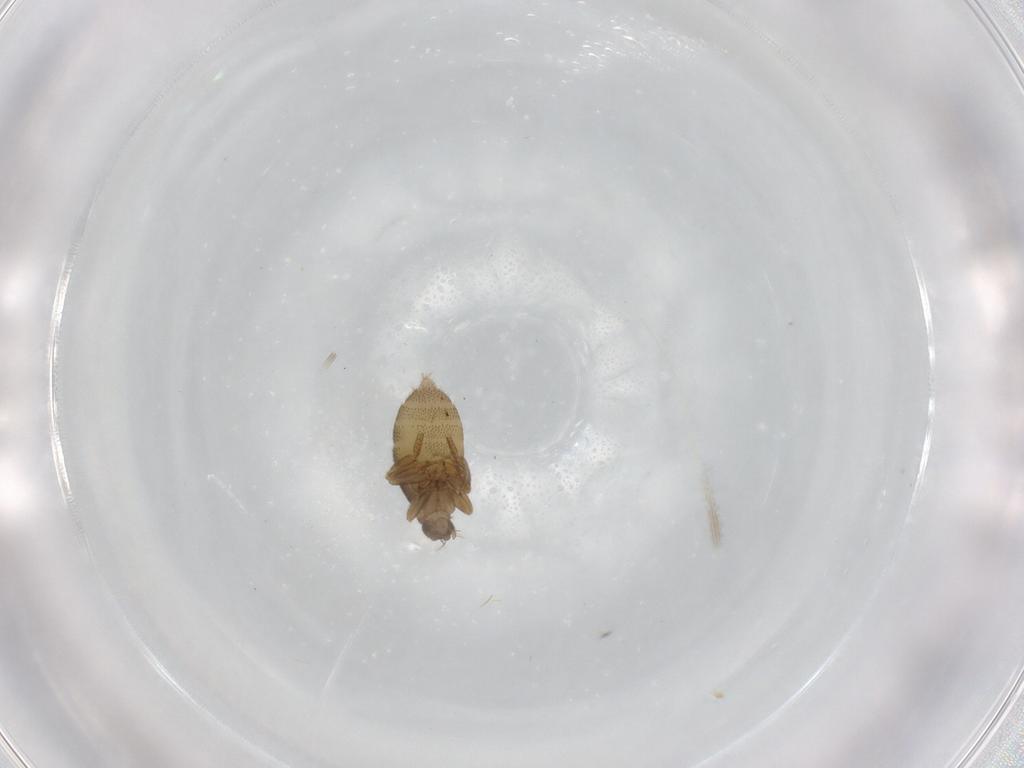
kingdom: Animalia
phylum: Arthropoda
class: Insecta
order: Diptera
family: Phoridae
